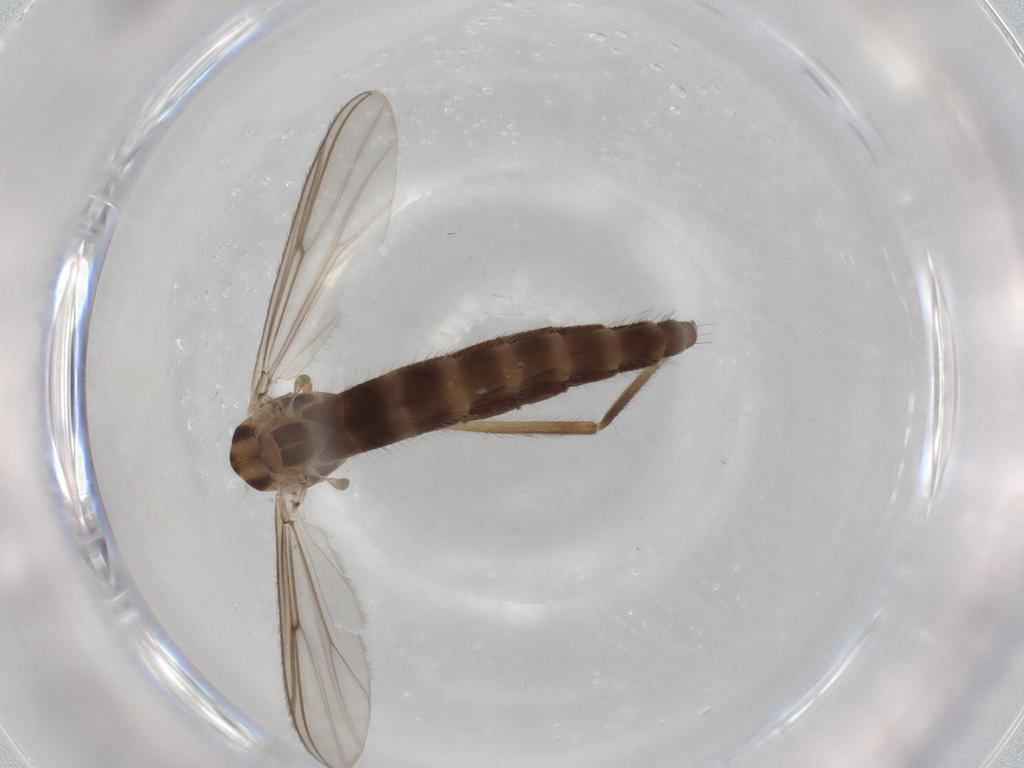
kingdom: Animalia
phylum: Arthropoda
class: Insecta
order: Diptera
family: Chironomidae
